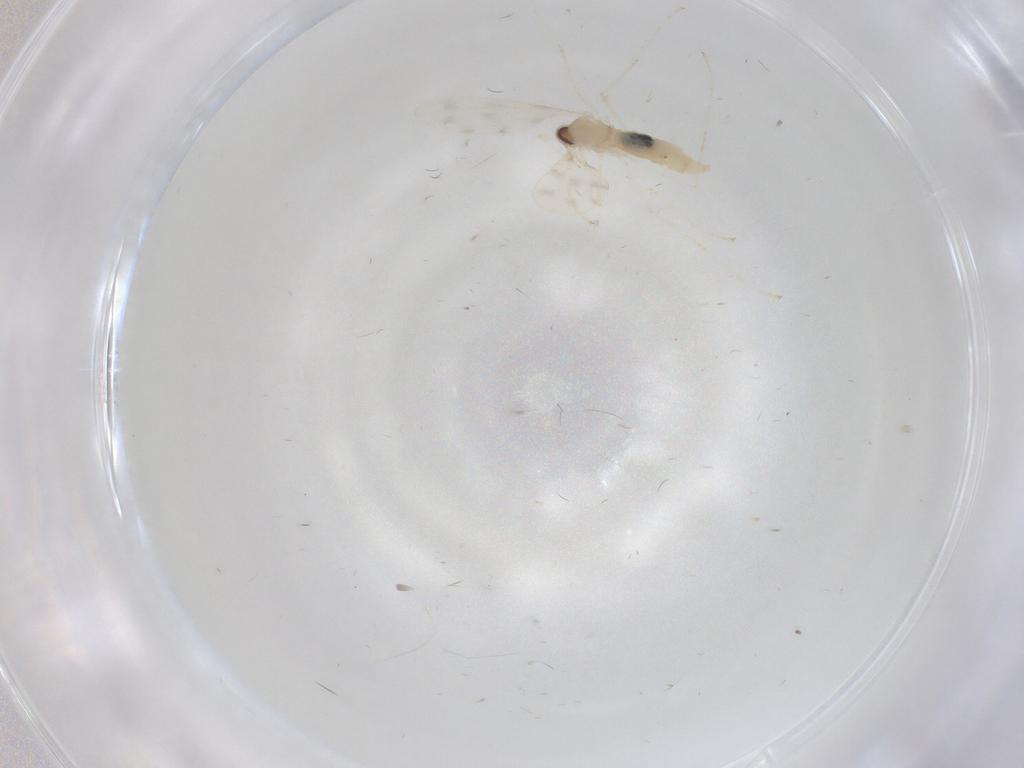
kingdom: Animalia
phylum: Arthropoda
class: Insecta
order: Diptera
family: Cecidomyiidae
